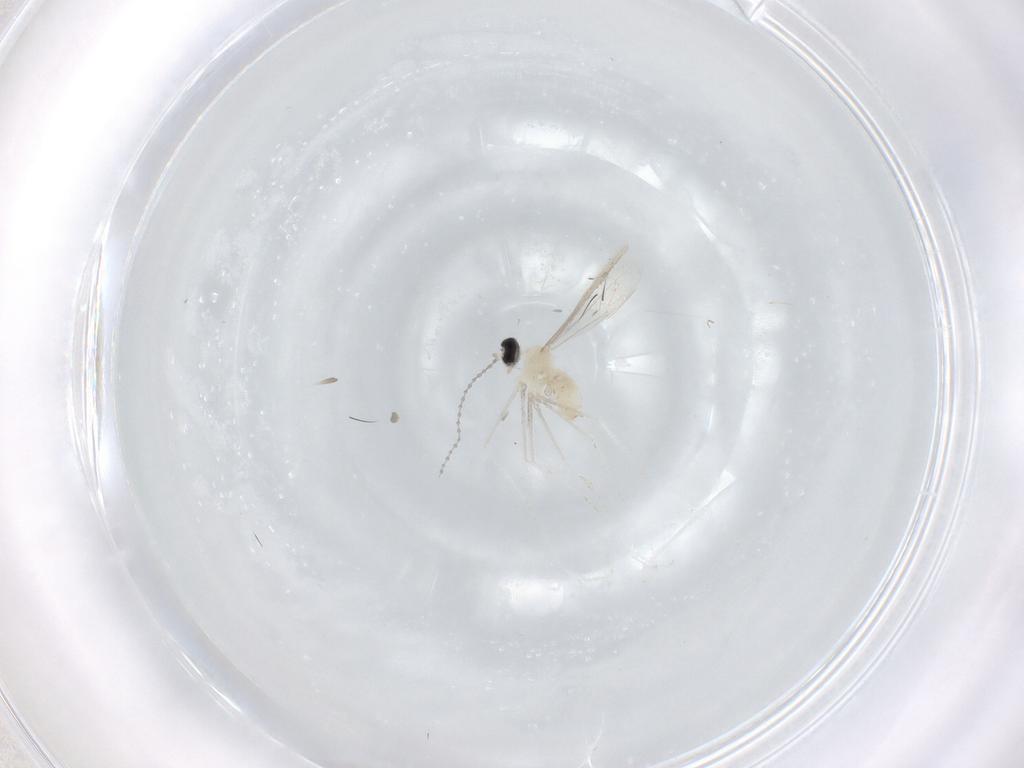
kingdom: Animalia
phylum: Arthropoda
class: Insecta
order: Diptera
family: Cecidomyiidae
